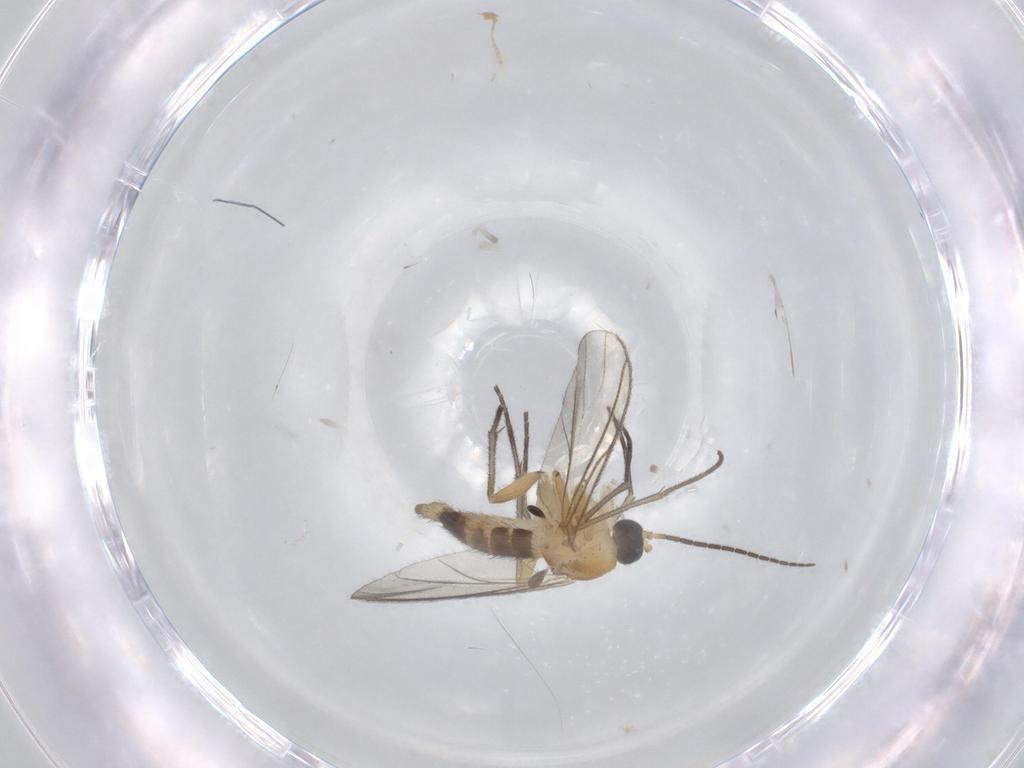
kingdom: Animalia
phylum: Arthropoda
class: Insecta
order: Diptera
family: Sciaridae
